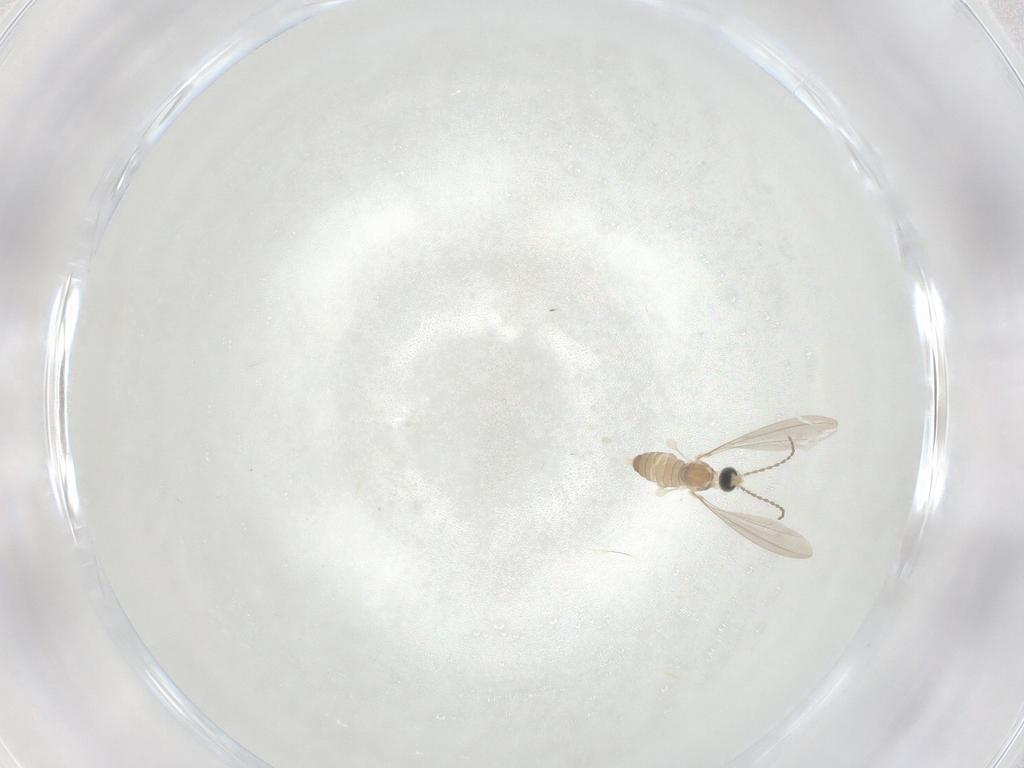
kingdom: Animalia
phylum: Arthropoda
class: Insecta
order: Diptera
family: Cecidomyiidae
